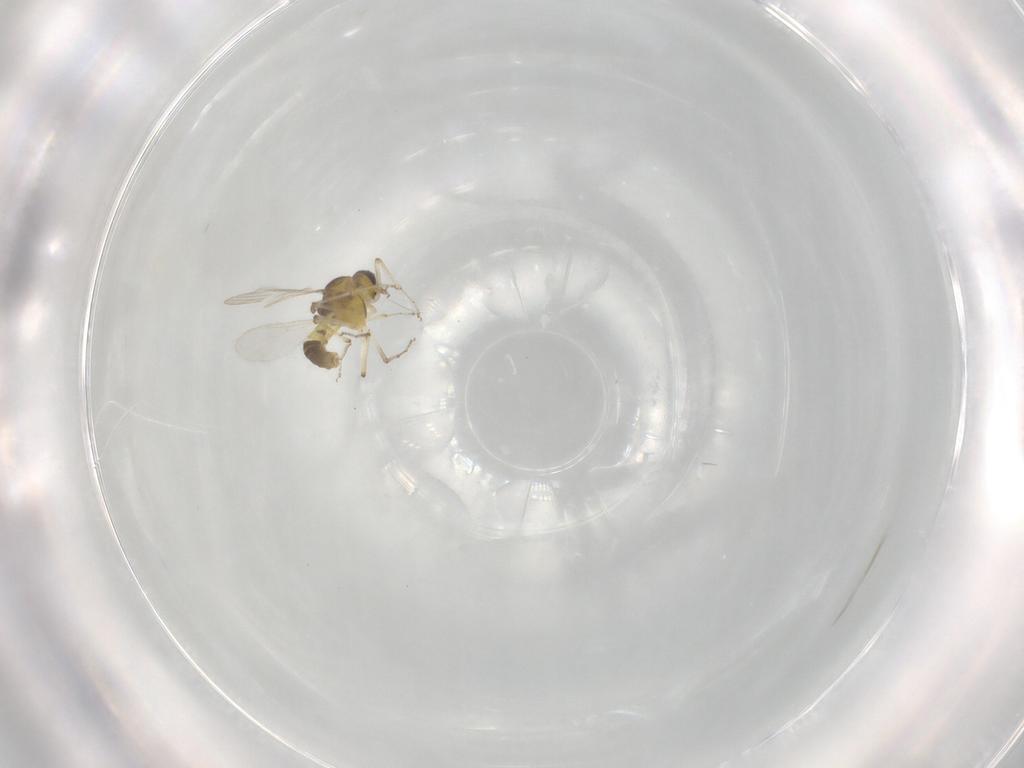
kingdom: Animalia
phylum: Arthropoda
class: Insecta
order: Diptera
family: Ceratopogonidae
